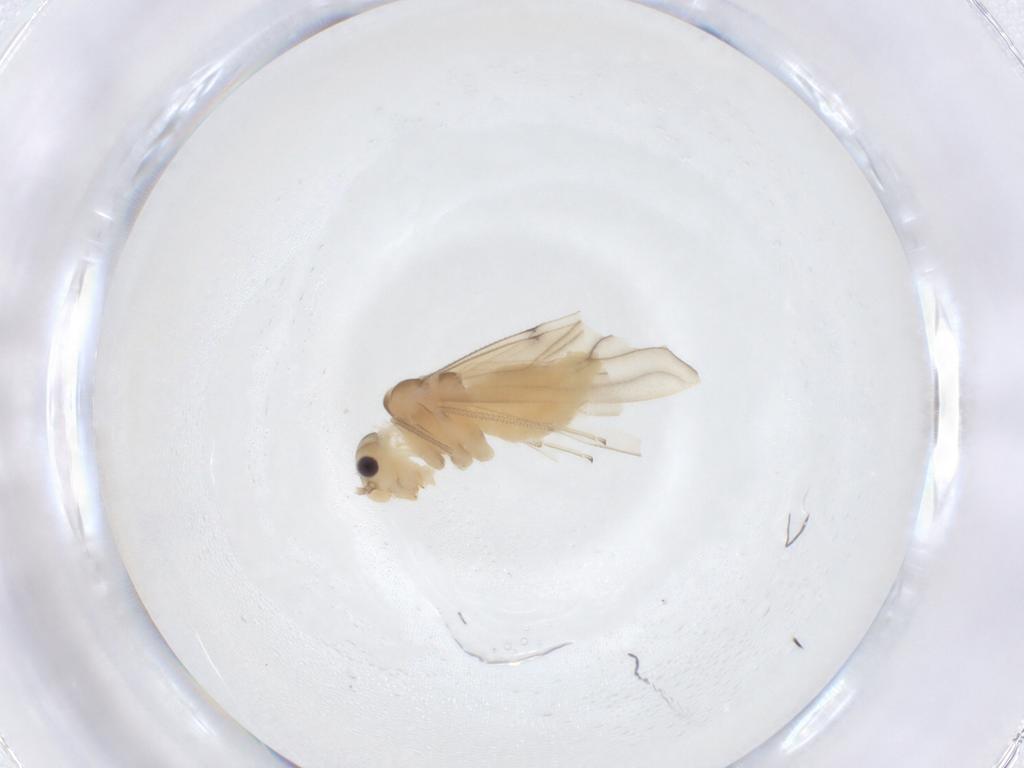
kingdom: Animalia
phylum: Arthropoda
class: Insecta
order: Psocodea
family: Caeciliusidae
